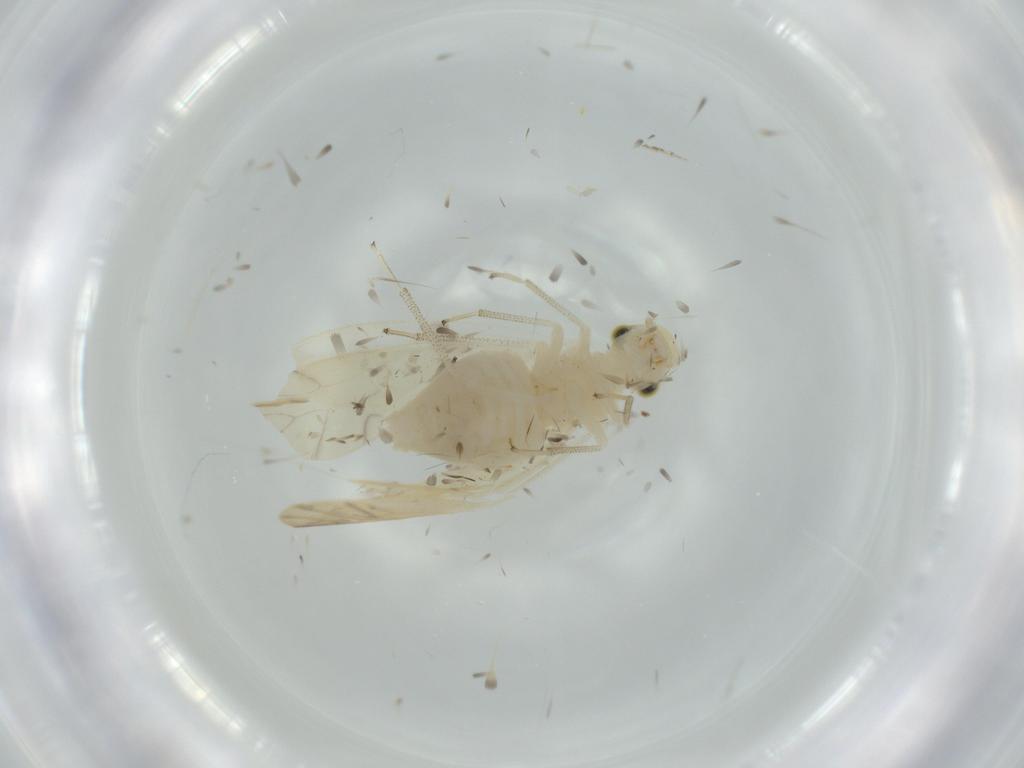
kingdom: Animalia
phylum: Arthropoda
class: Insecta
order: Psocodea
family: Caeciliusidae
